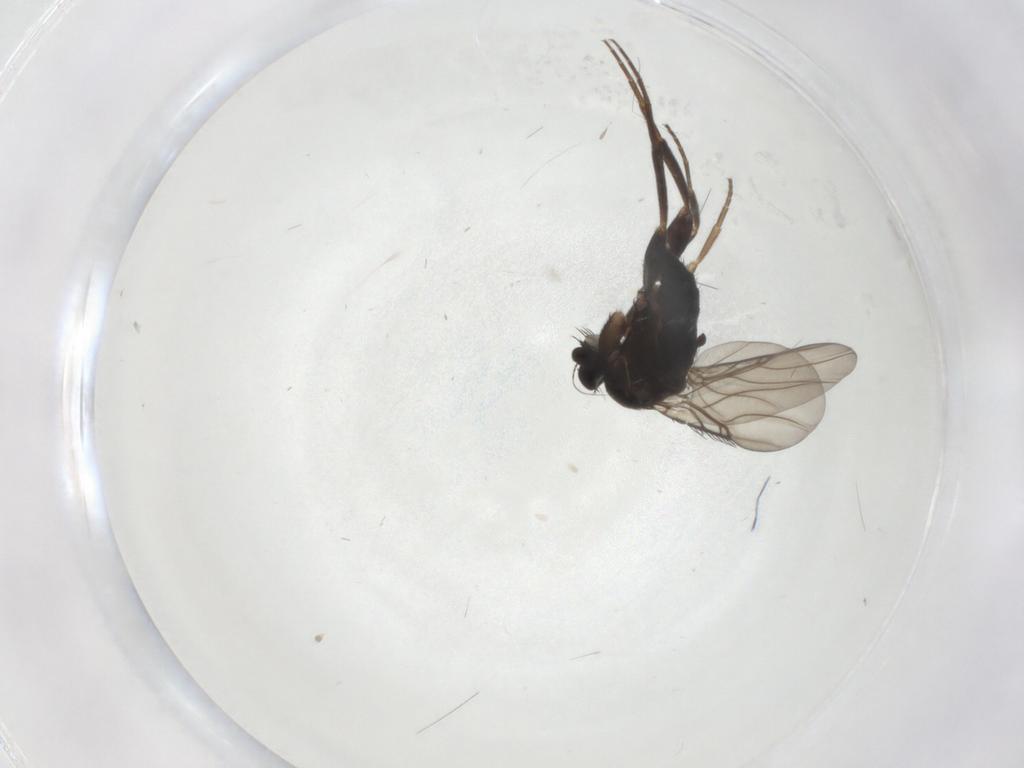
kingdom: Animalia
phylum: Arthropoda
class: Insecta
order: Diptera
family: Phoridae
